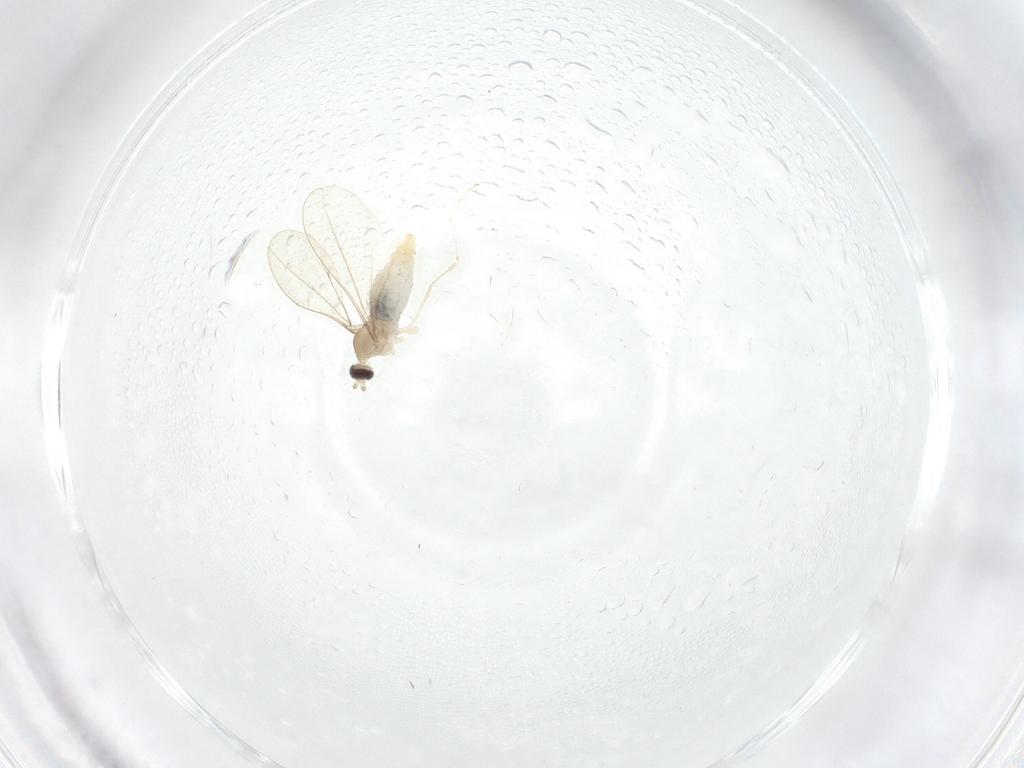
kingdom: Animalia
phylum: Arthropoda
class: Insecta
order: Diptera
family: Cecidomyiidae
